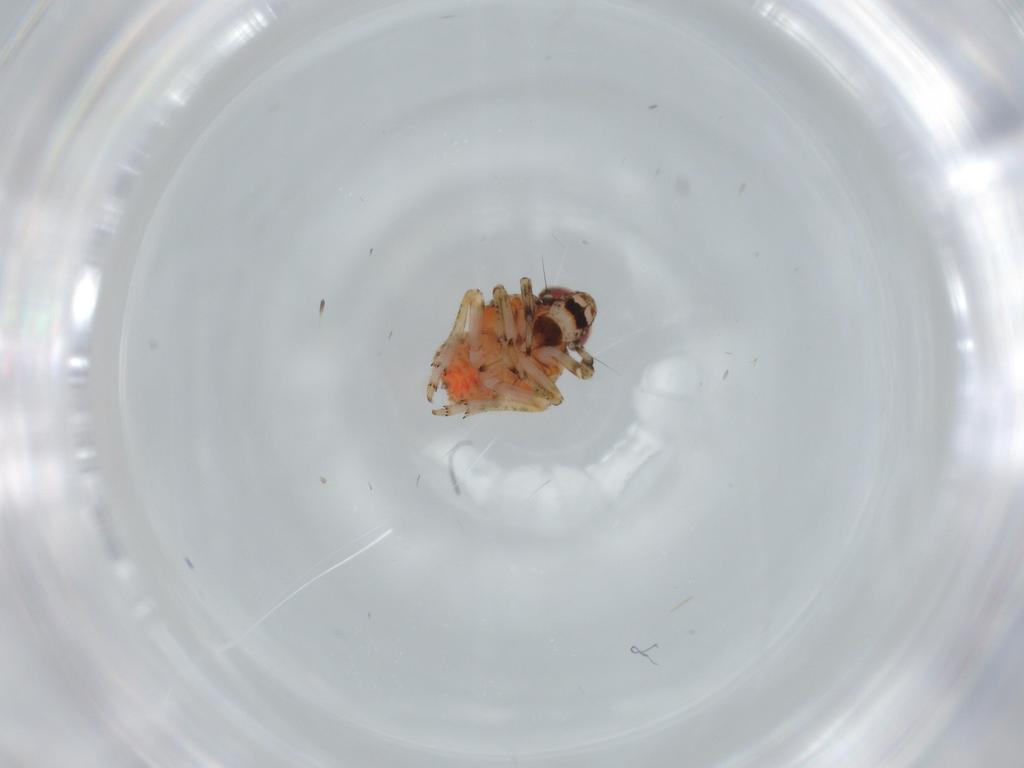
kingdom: Animalia
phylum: Arthropoda
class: Insecta
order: Hemiptera
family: Issidae
